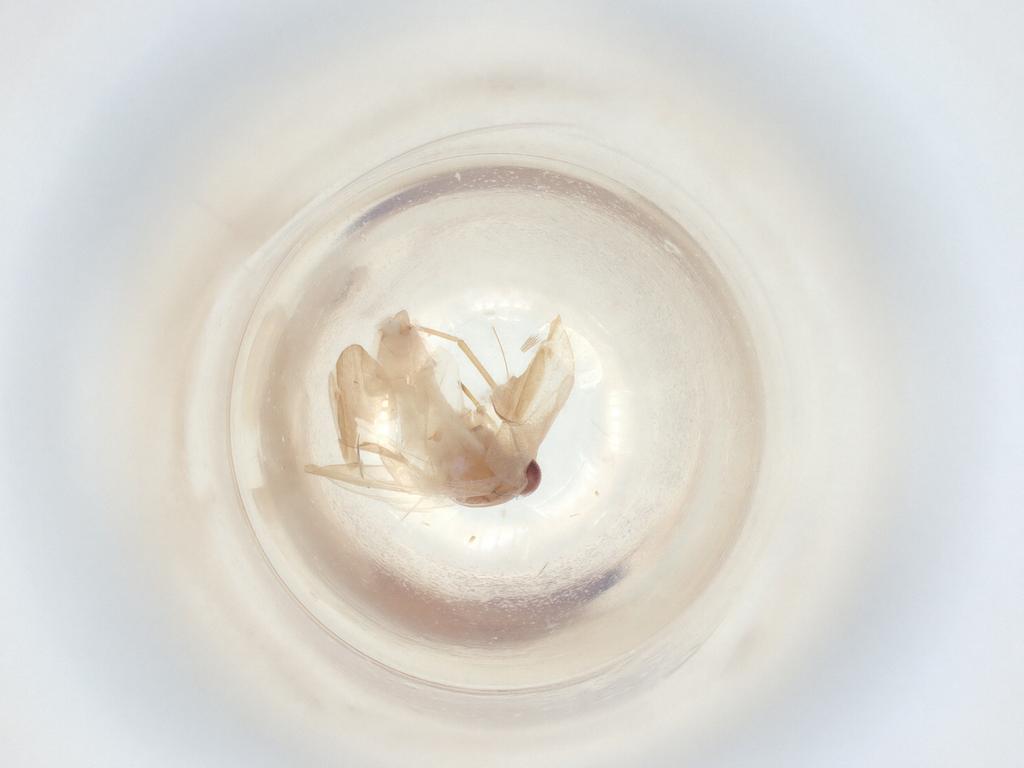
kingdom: Animalia
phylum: Arthropoda
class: Insecta
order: Hemiptera
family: Miridae
